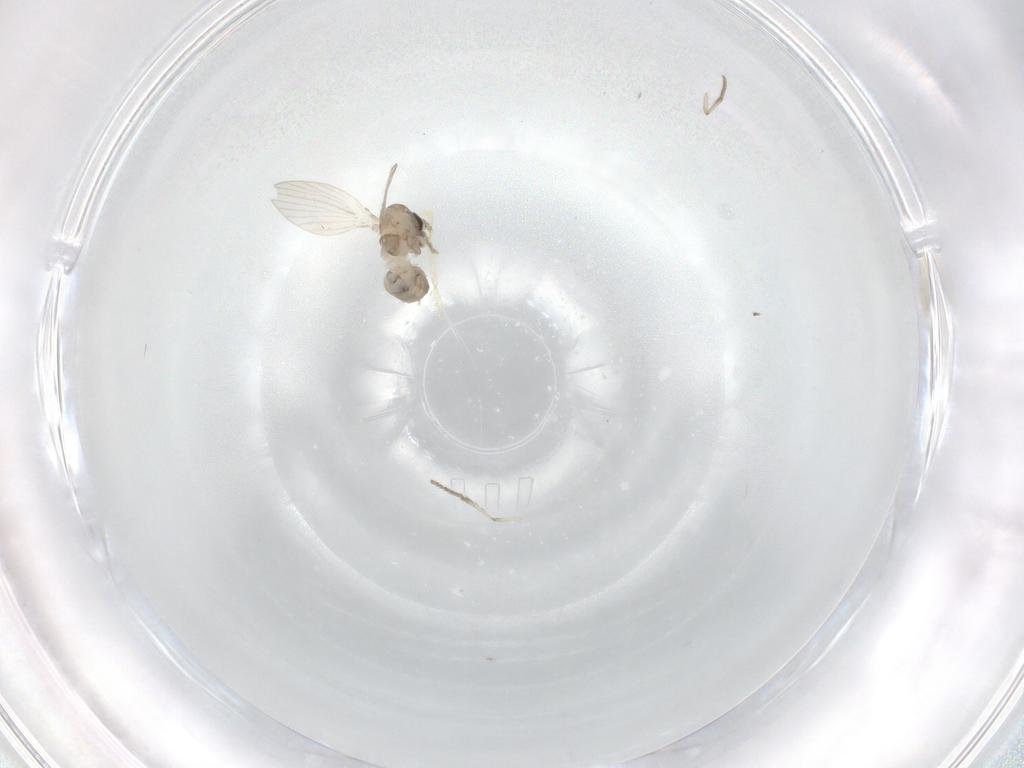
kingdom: Animalia
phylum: Arthropoda
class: Insecta
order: Diptera
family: Psychodidae
